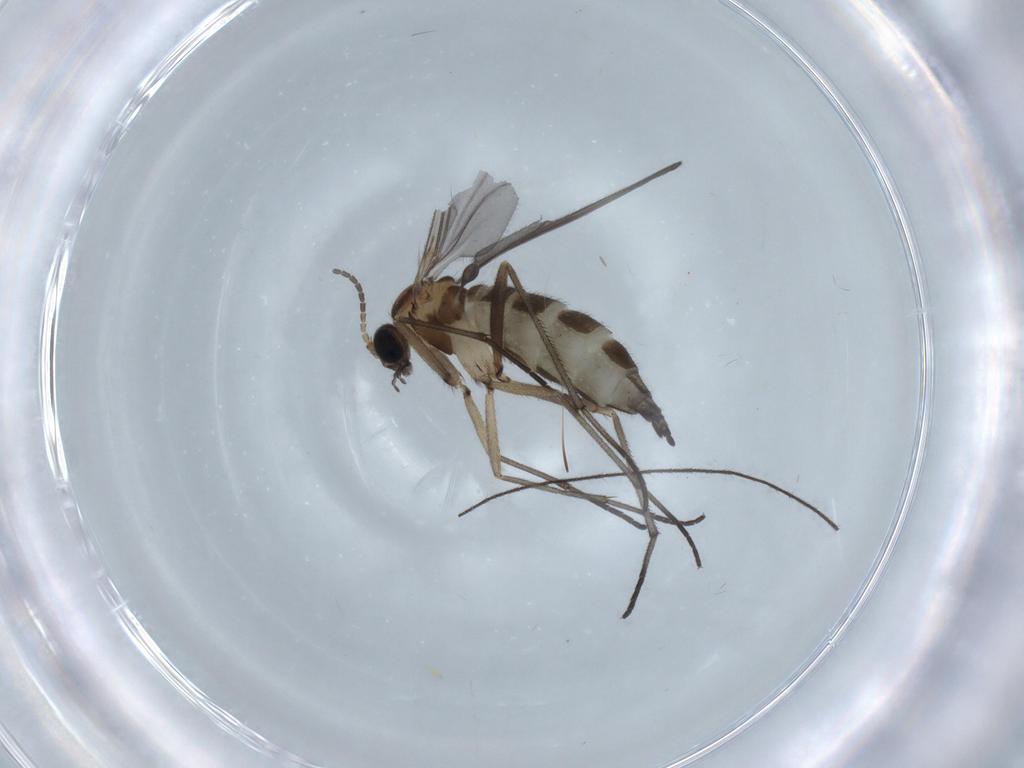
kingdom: Animalia
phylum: Arthropoda
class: Insecta
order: Diptera
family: Sciaridae
